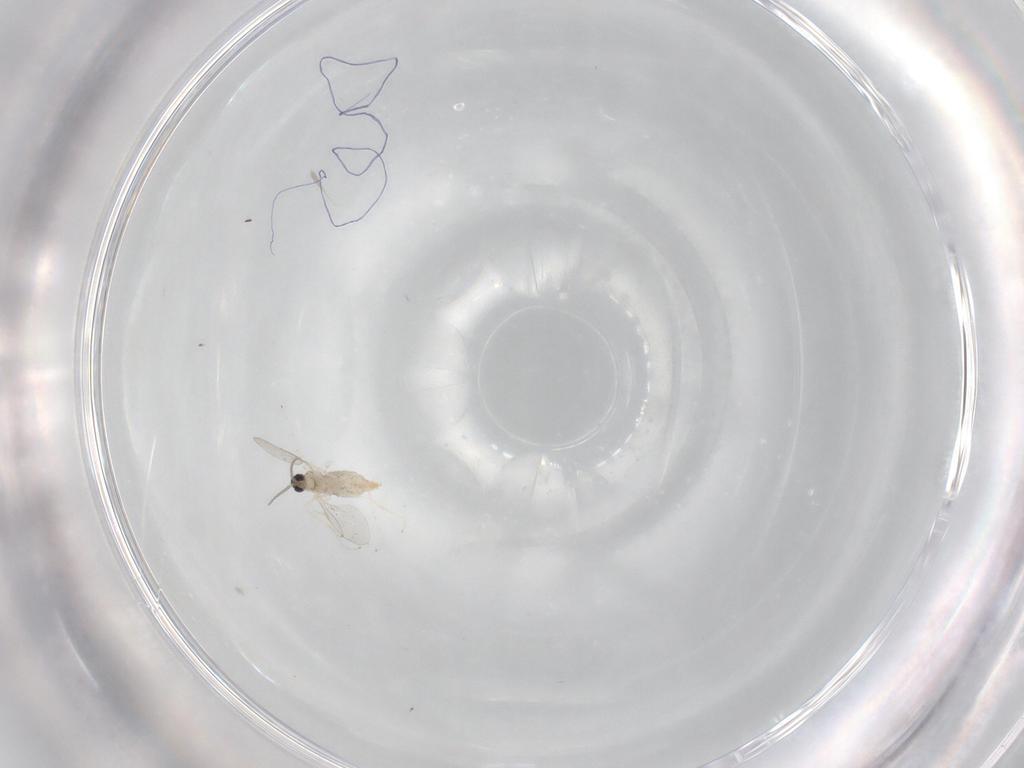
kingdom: Animalia
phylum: Arthropoda
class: Insecta
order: Diptera
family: Cecidomyiidae
